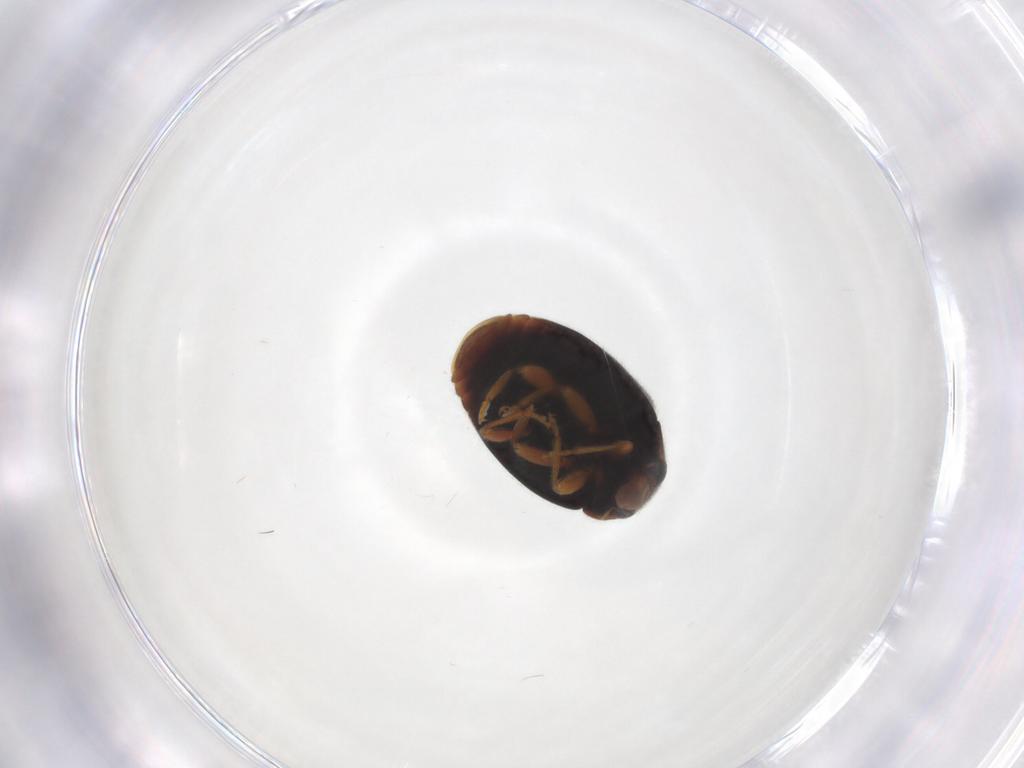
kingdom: Animalia
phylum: Arthropoda
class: Insecta
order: Coleoptera
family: Coccinellidae
